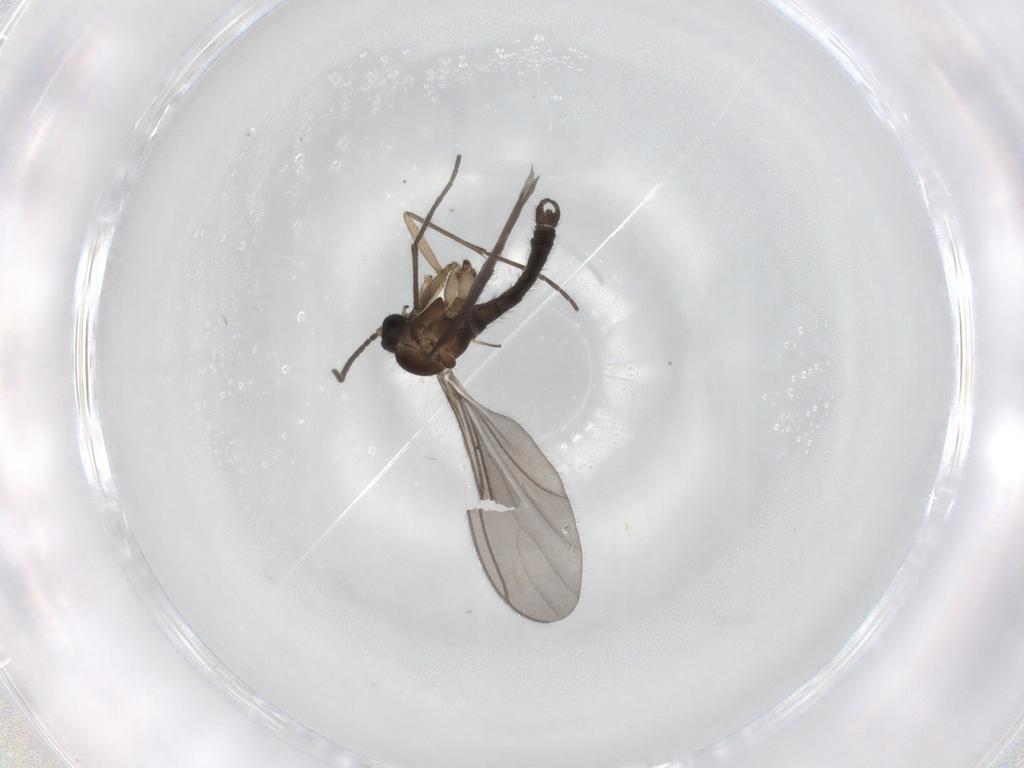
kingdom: Animalia
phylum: Arthropoda
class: Insecta
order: Diptera
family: Sciaridae
